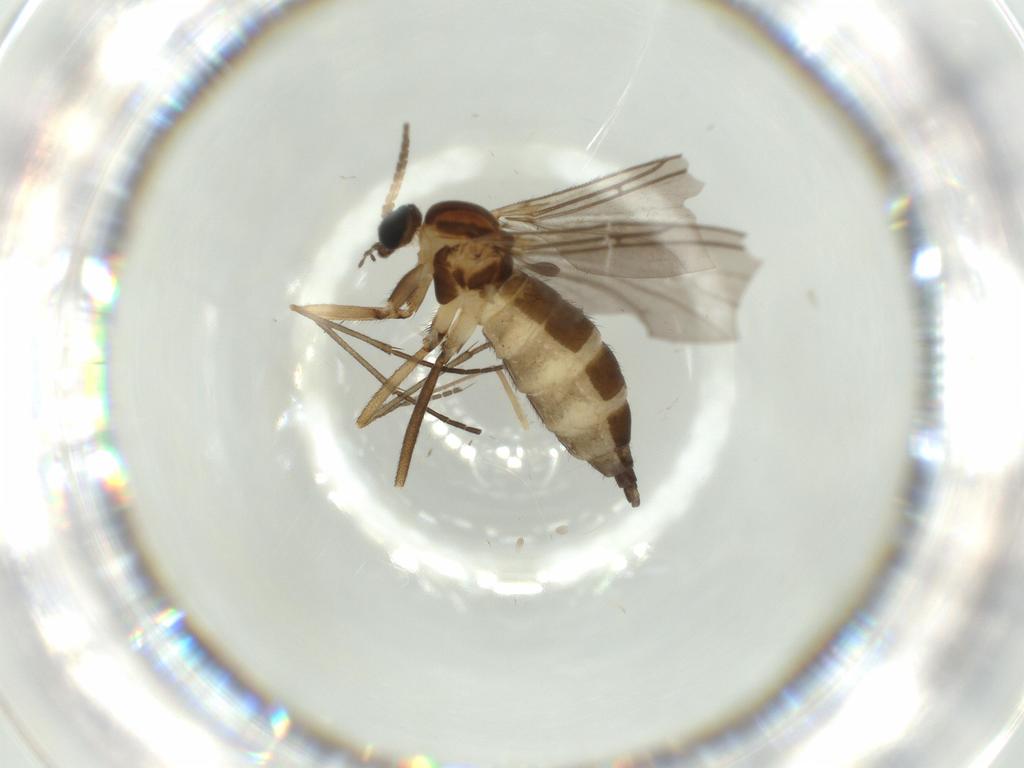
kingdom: Animalia
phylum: Arthropoda
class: Insecta
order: Diptera
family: Sciaridae
